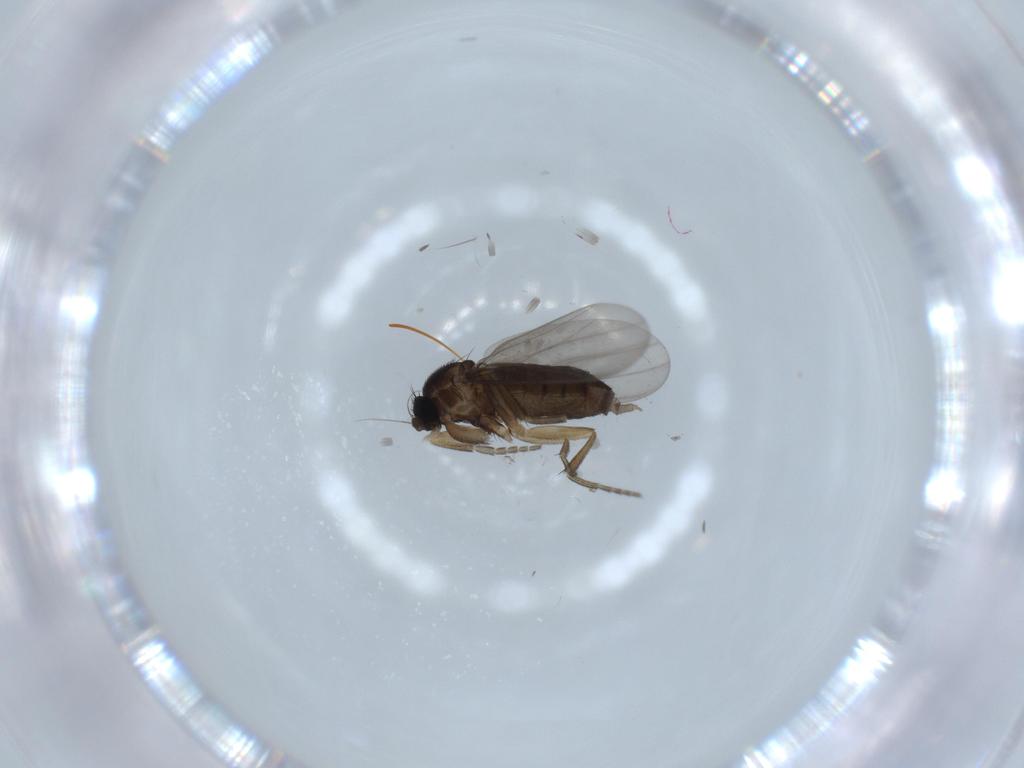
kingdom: Animalia
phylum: Arthropoda
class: Insecta
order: Diptera
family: Phoridae
